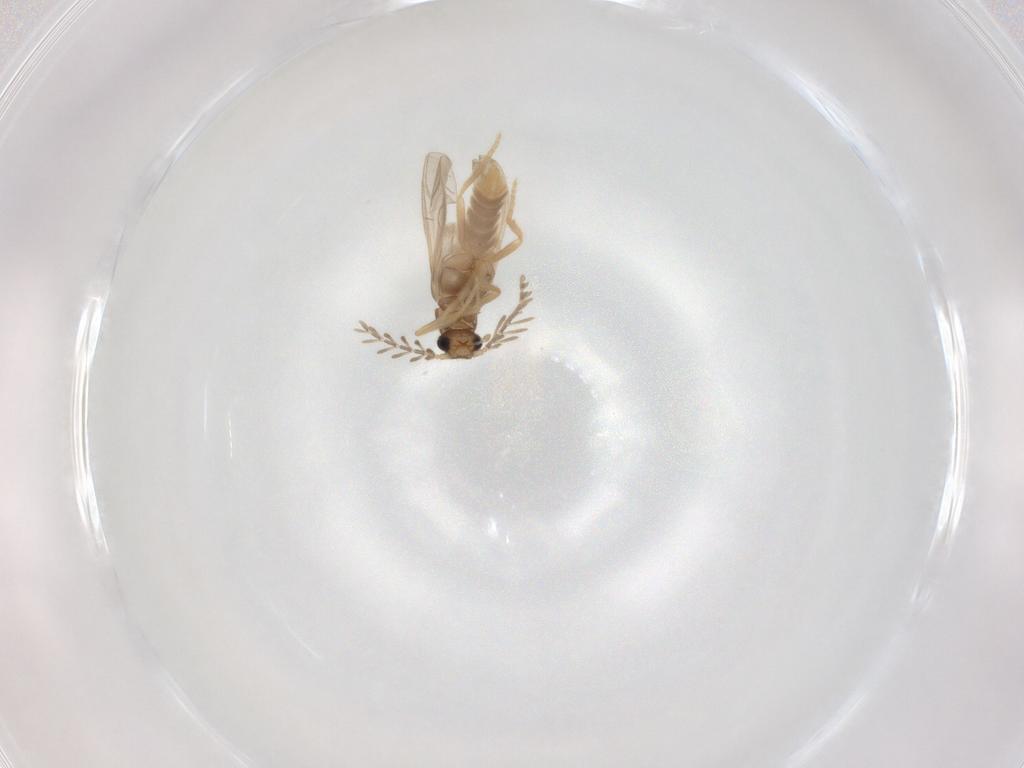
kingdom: Animalia
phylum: Arthropoda
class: Insecta
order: Coleoptera
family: Phengodidae
